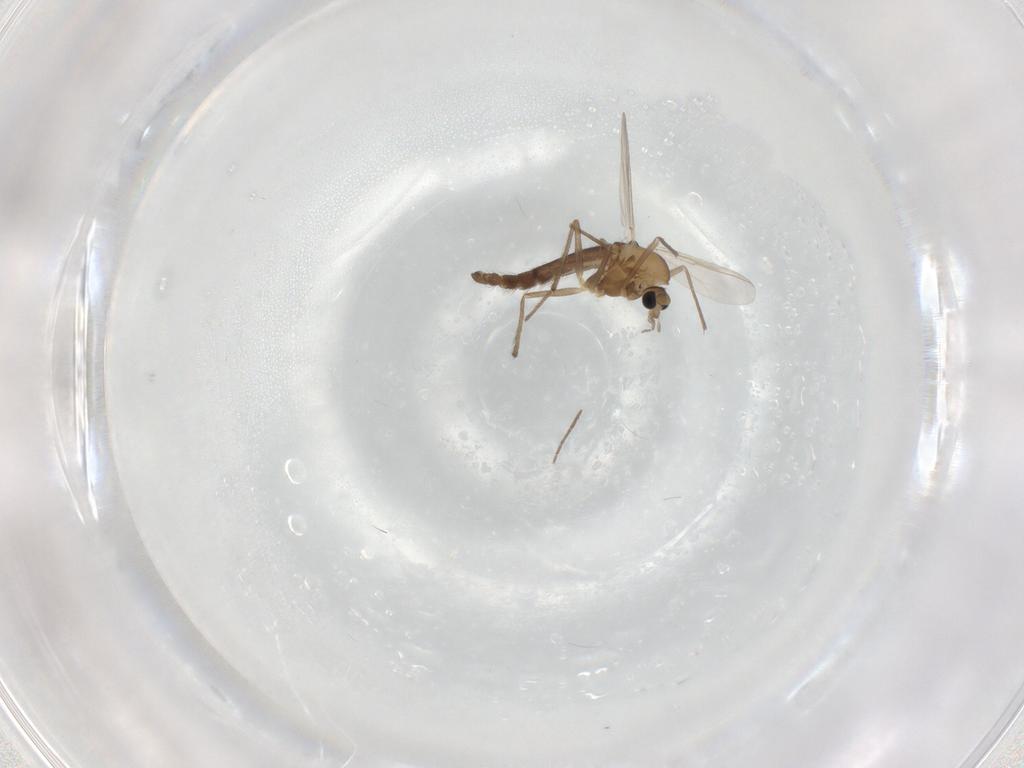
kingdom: Animalia
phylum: Arthropoda
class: Insecta
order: Diptera
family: Chironomidae
